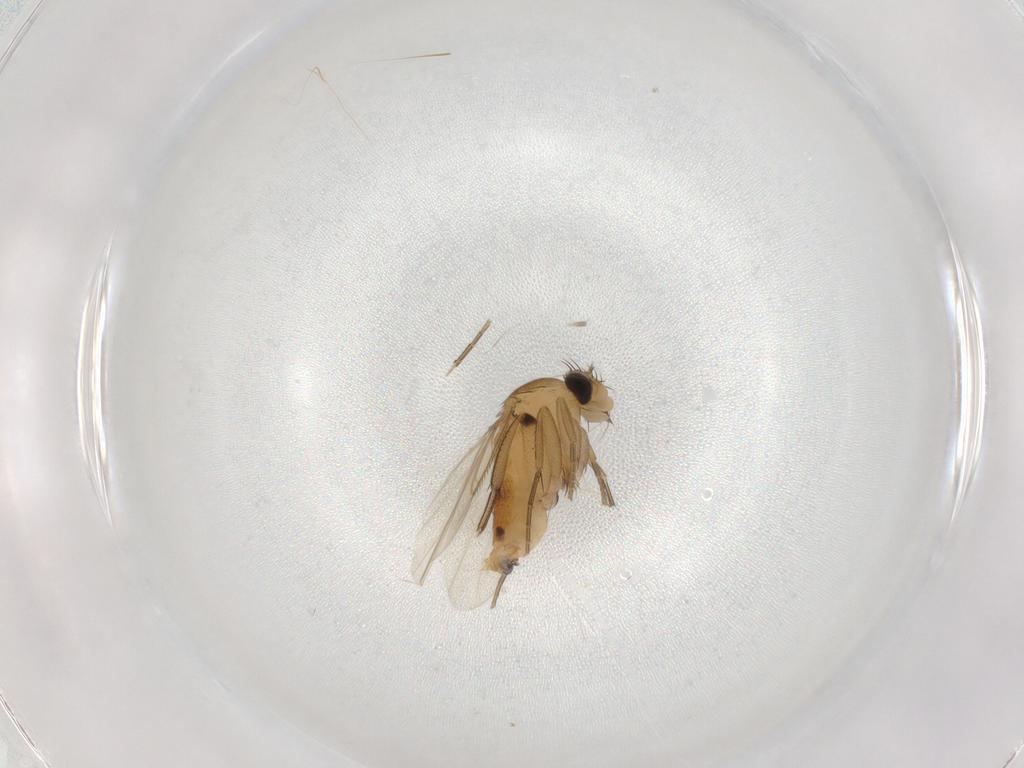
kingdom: Animalia
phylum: Arthropoda
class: Insecta
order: Diptera
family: Phoridae
